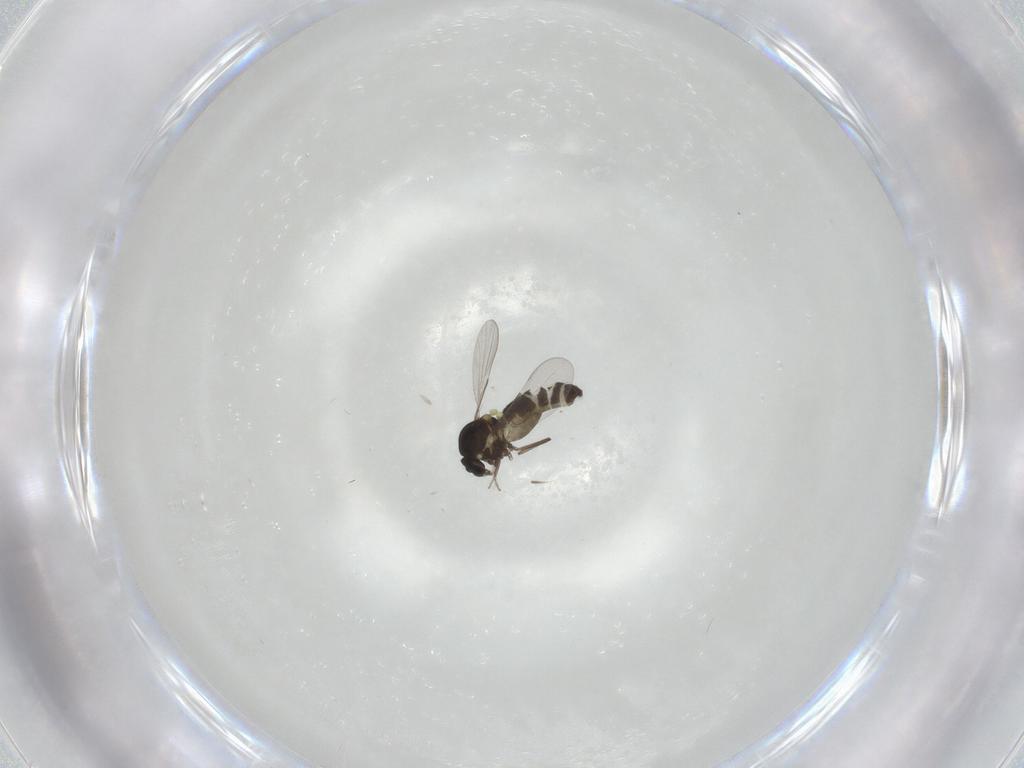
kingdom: Animalia
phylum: Arthropoda
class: Insecta
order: Diptera
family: Ceratopogonidae
